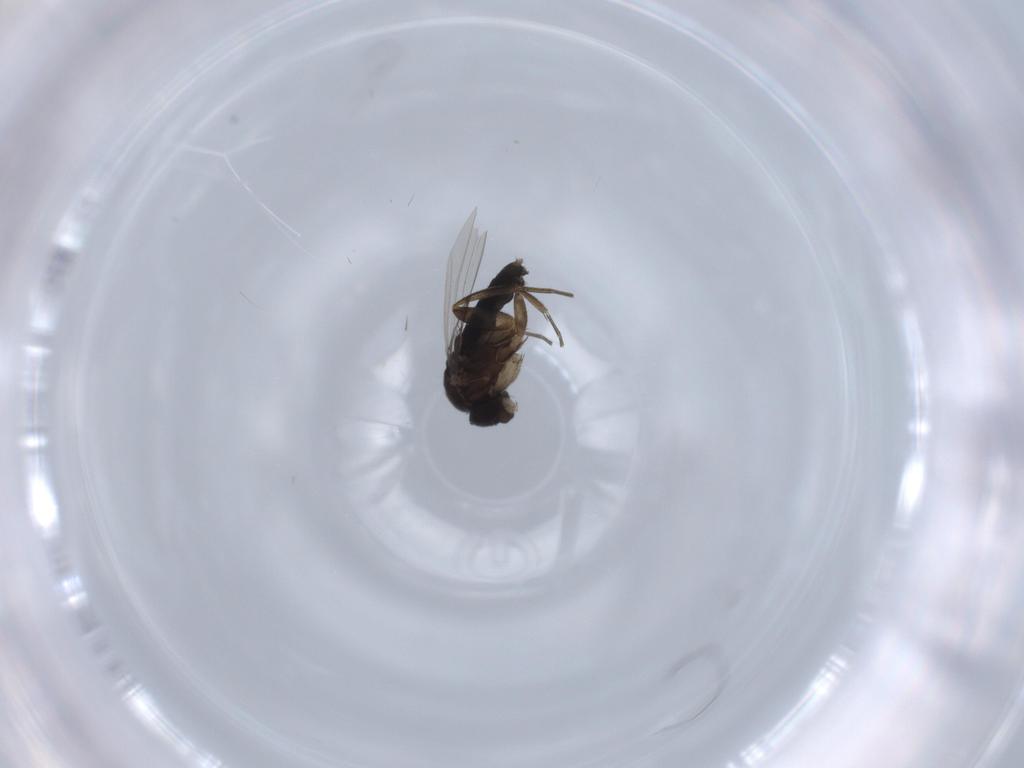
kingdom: Animalia
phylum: Arthropoda
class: Insecta
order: Diptera
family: Phoridae
